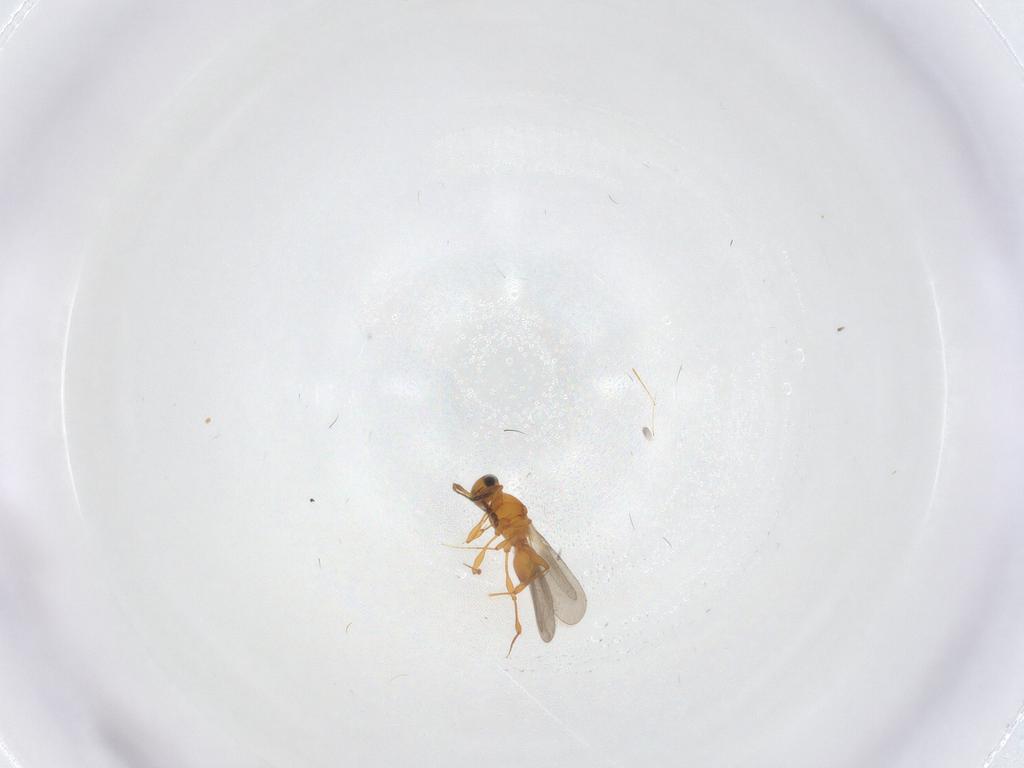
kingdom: Animalia
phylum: Arthropoda
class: Insecta
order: Hymenoptera
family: Platygastridae
